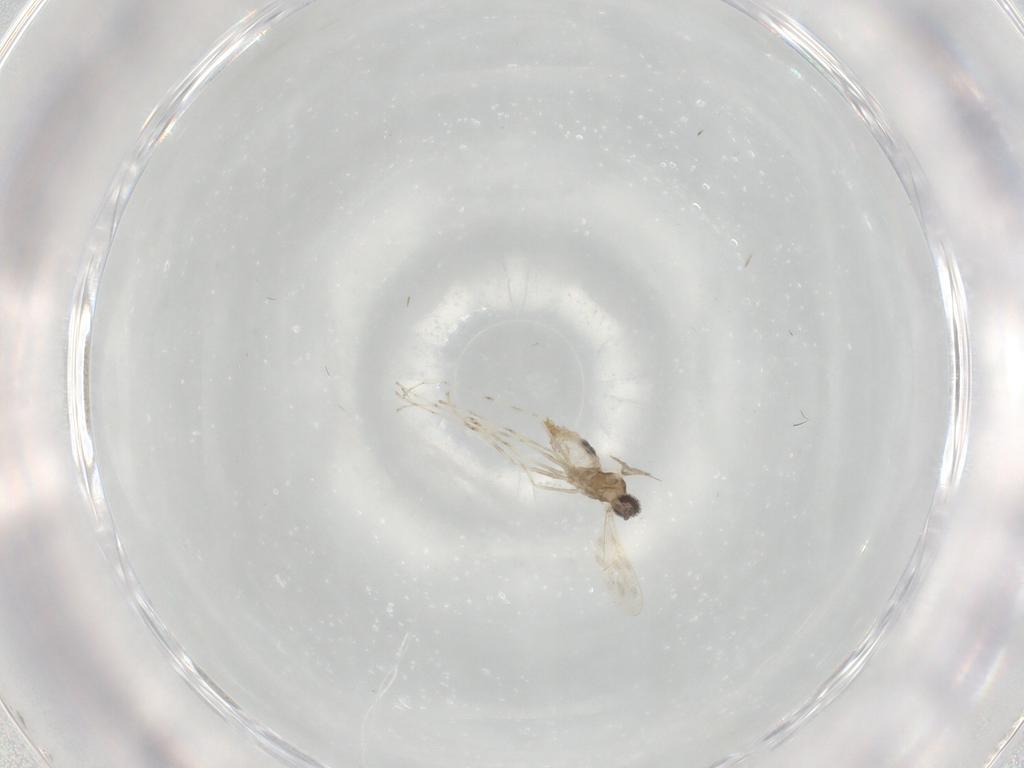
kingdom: Animalia
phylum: Arthropoda
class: Insecta
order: Diptera
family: Cecidomyiidae
